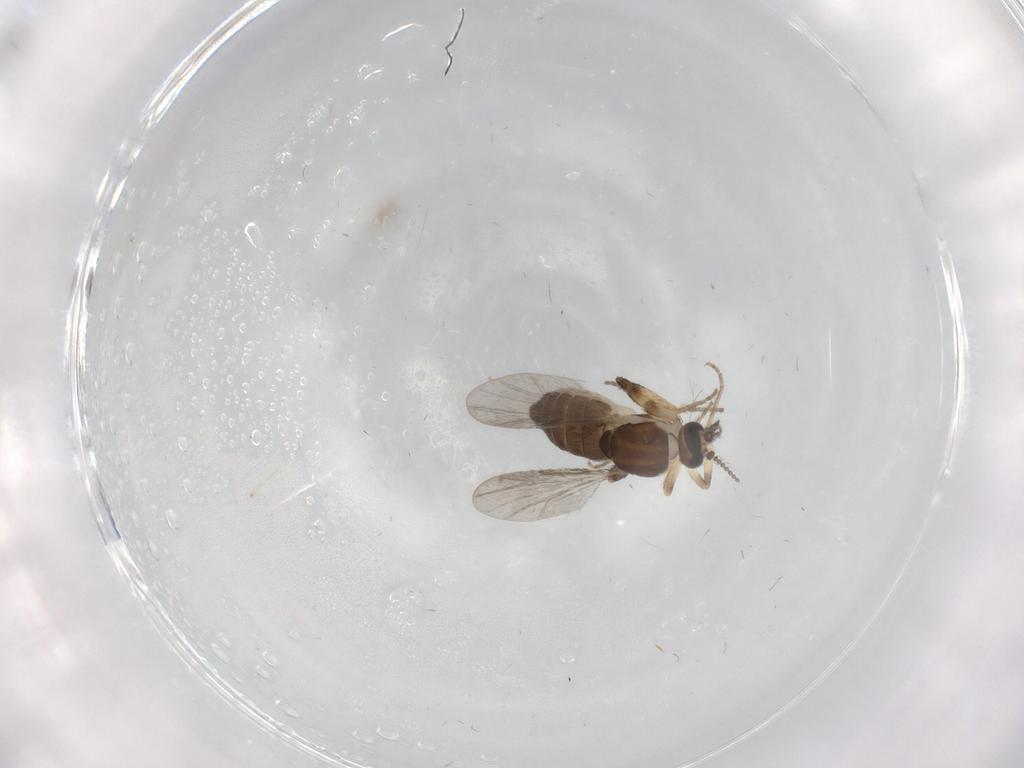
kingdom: Animalia
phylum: Arthropoda
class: Insecta
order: Diptera
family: Ceratopogonidae
